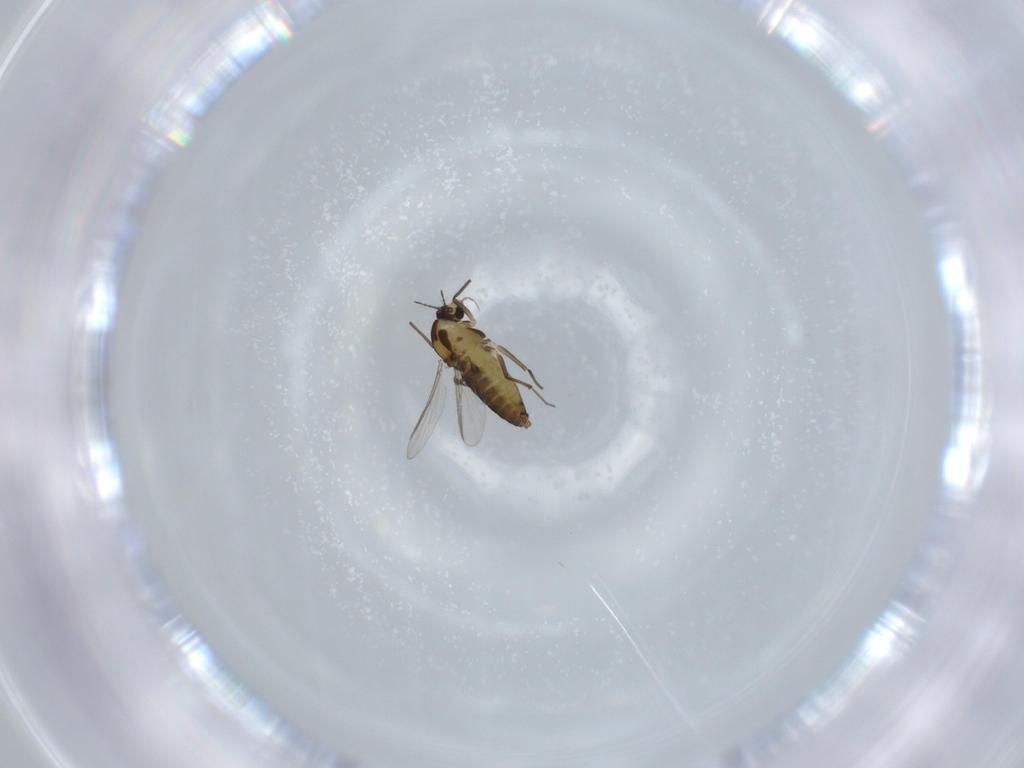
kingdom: Animalia
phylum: Arthropoda
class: Insecta
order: Diptera
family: Chironomidae
